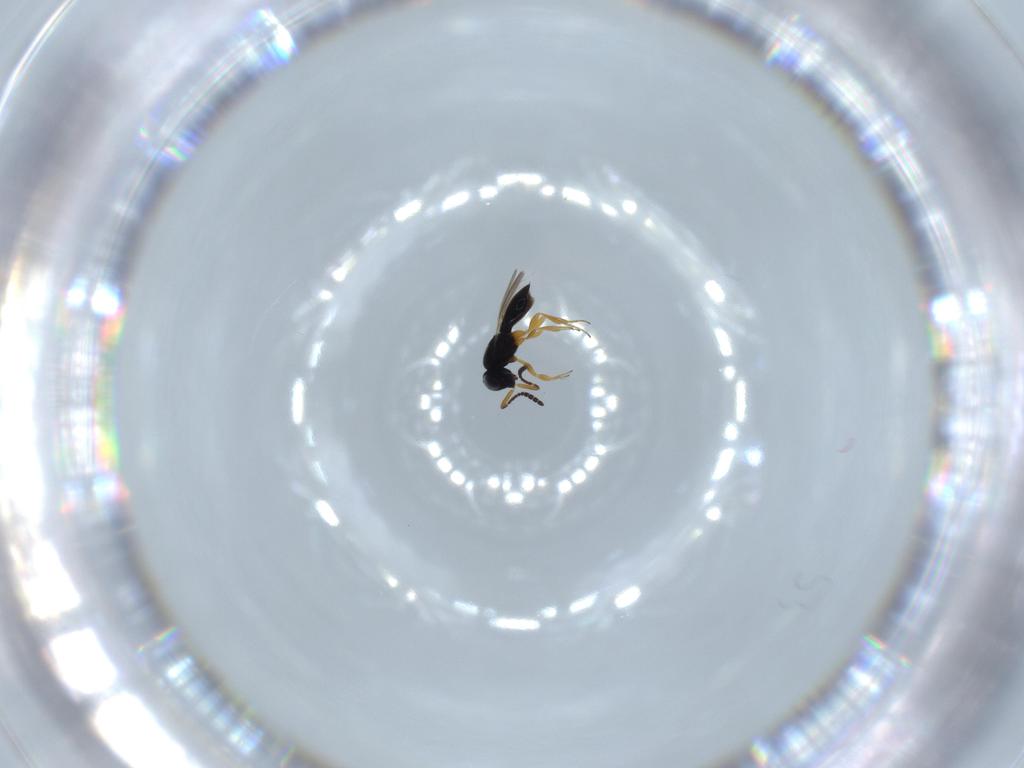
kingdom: Animalia
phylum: Arthropoda
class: Insecta
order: Hymenoptera
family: Scelionidae
